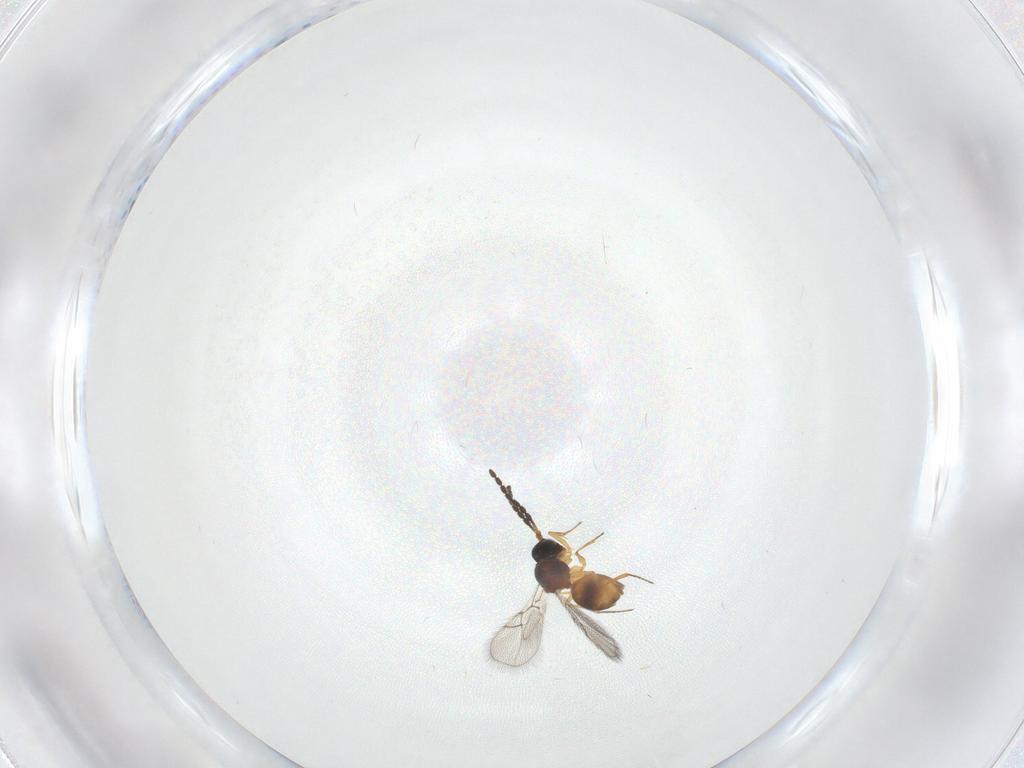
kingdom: Animalia
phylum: Arthropoda
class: Insecta
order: Hymenoptera
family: Figitidae
